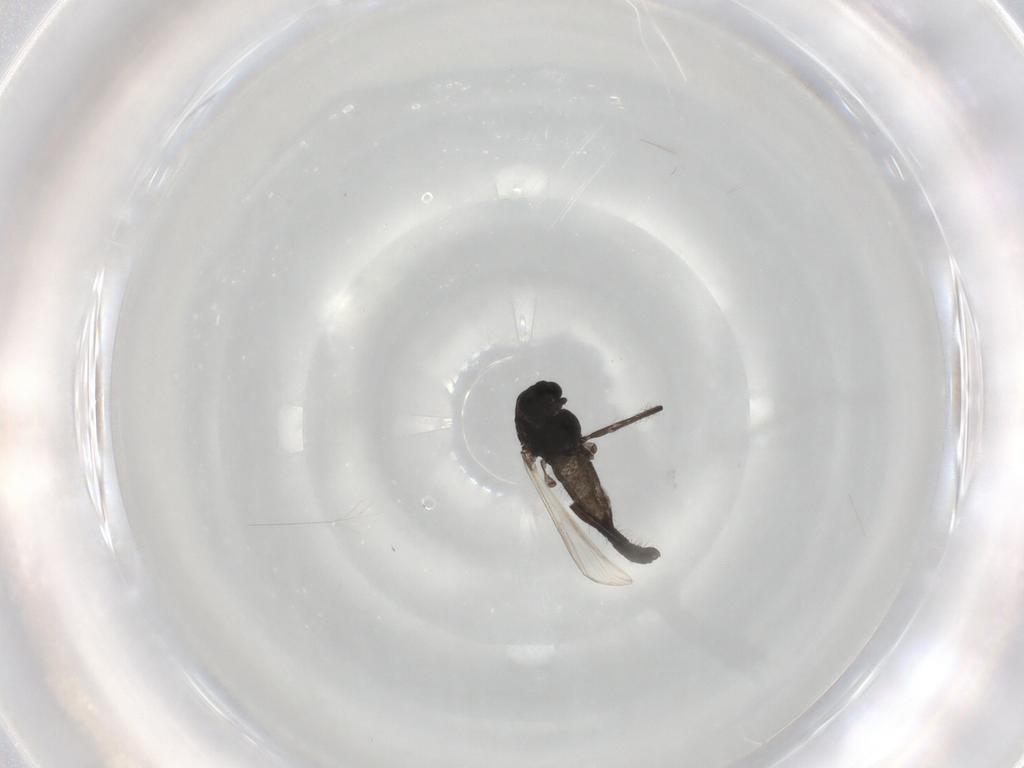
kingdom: Animalia
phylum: Arthropoda
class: Insecta
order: Diptera
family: Chironomidae
